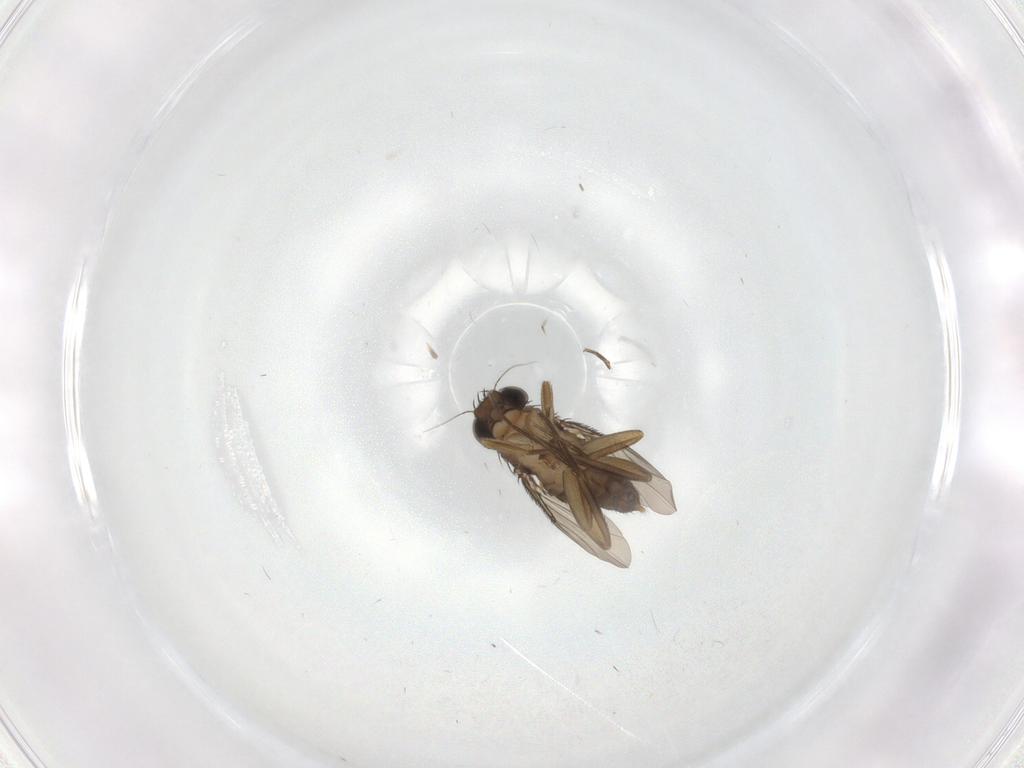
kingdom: Animalia
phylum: Arthropoda
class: Insecta
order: Diptera
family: Phoridae
